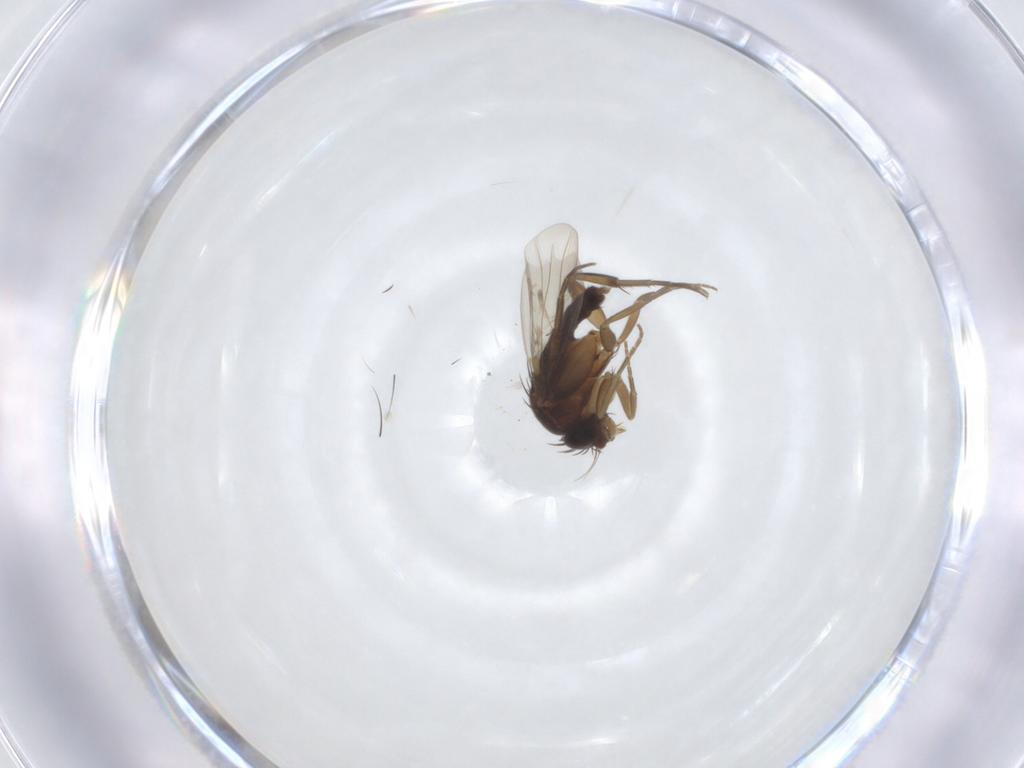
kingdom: Animalia
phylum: Arthropoda
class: Insecta
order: Diptera
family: Phoridae
